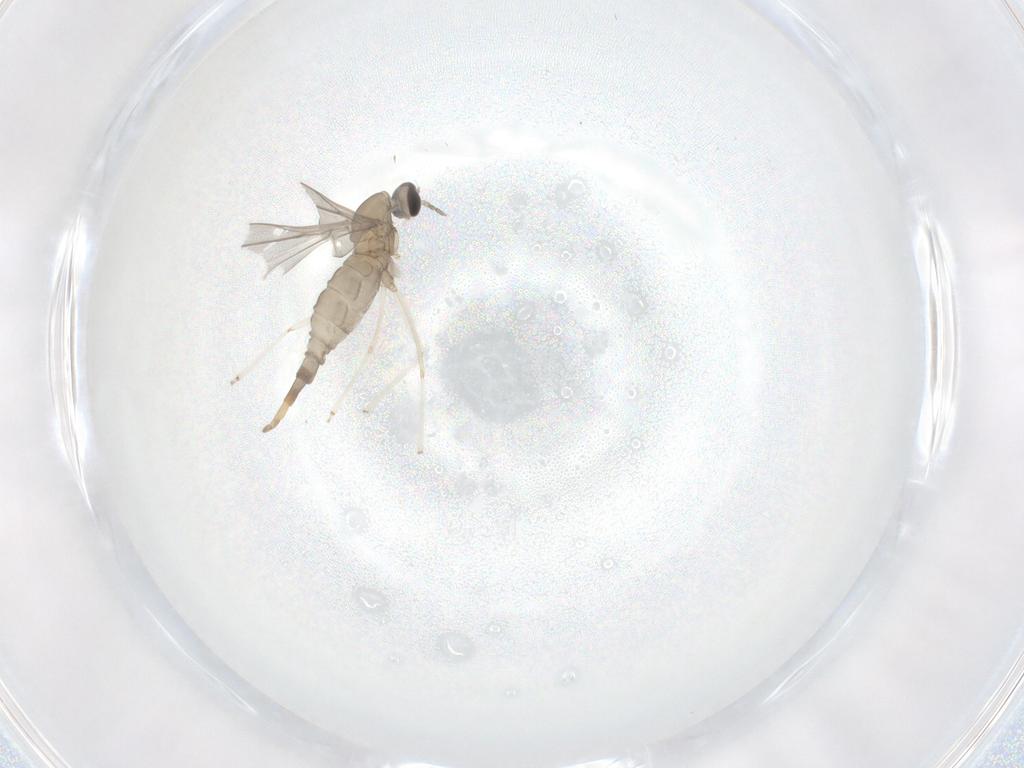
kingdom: Animalia
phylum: Arthropoda
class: Insecta
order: Diptera
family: Cecidomyiidae
